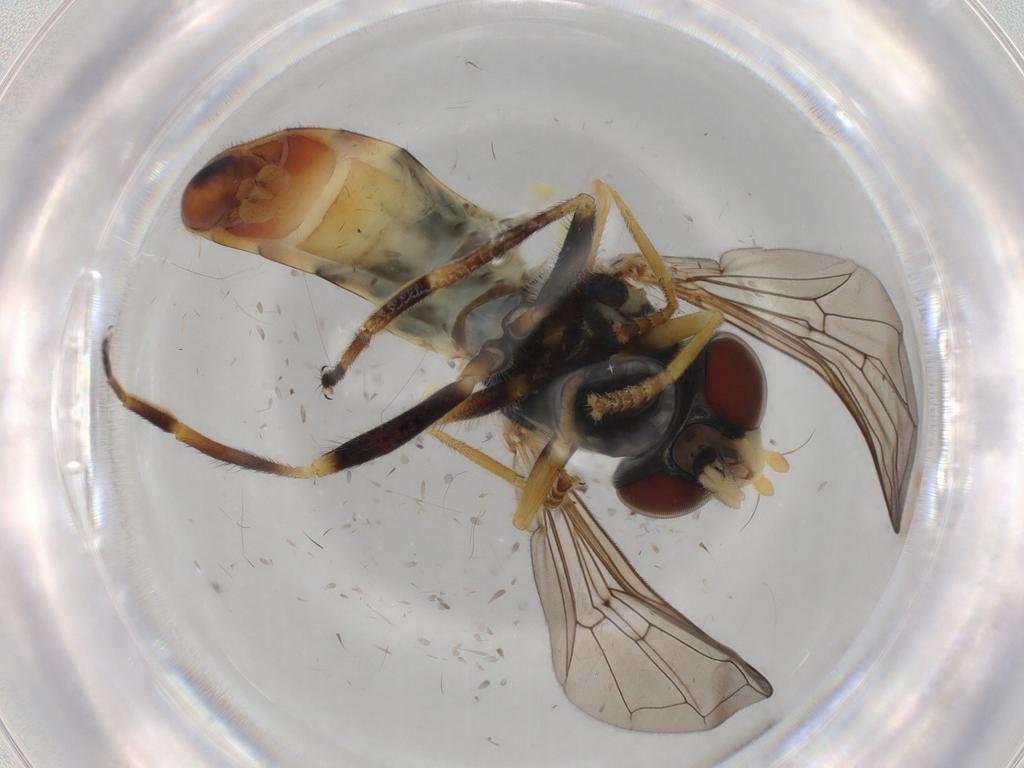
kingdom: Animalia
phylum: Arthropoda
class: Insecta
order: Diptera
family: Syrphidae
